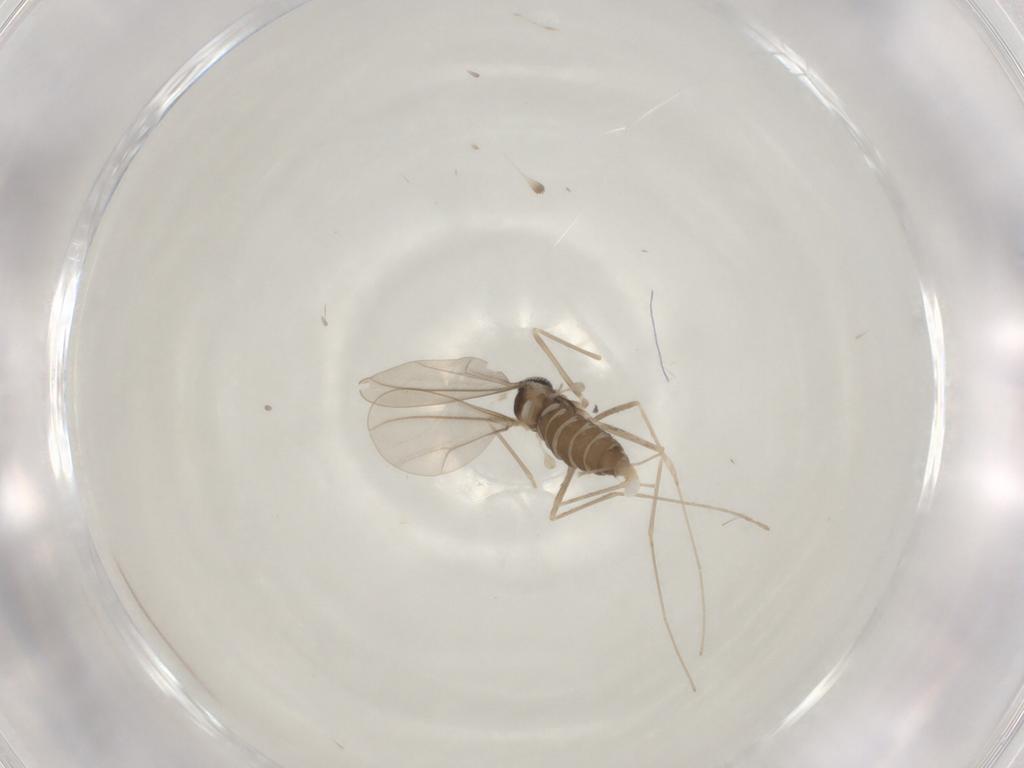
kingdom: Animalia
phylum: Arthropoda
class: Insecta
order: Diptera
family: Cecidomyiidae
